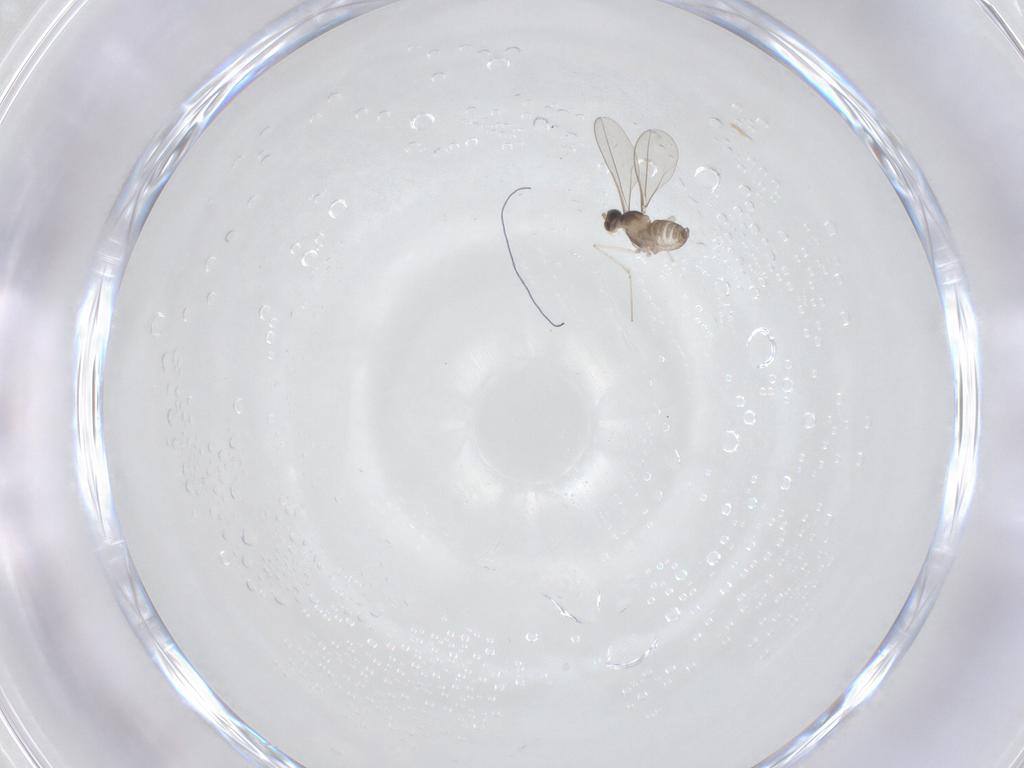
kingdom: Animalia
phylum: Arthropoda
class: Insecta
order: Diptera
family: Cecidomyiidae
